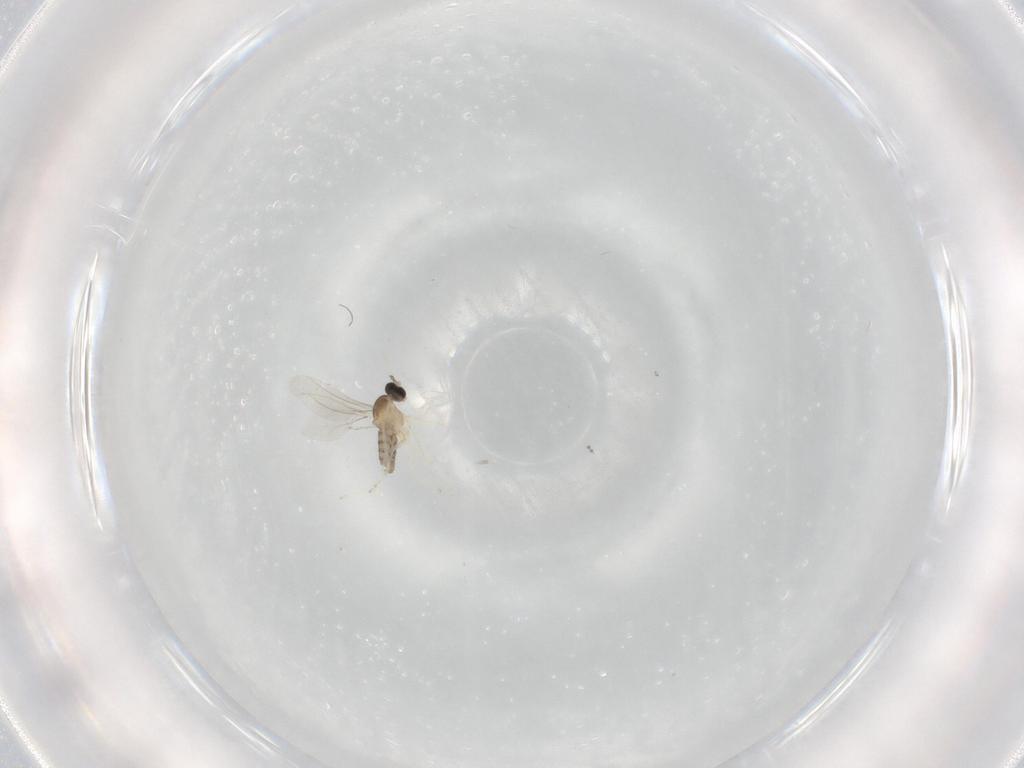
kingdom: Animalia
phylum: Arthropoda
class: Insecta
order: Diptera
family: Cecidomyiidae
